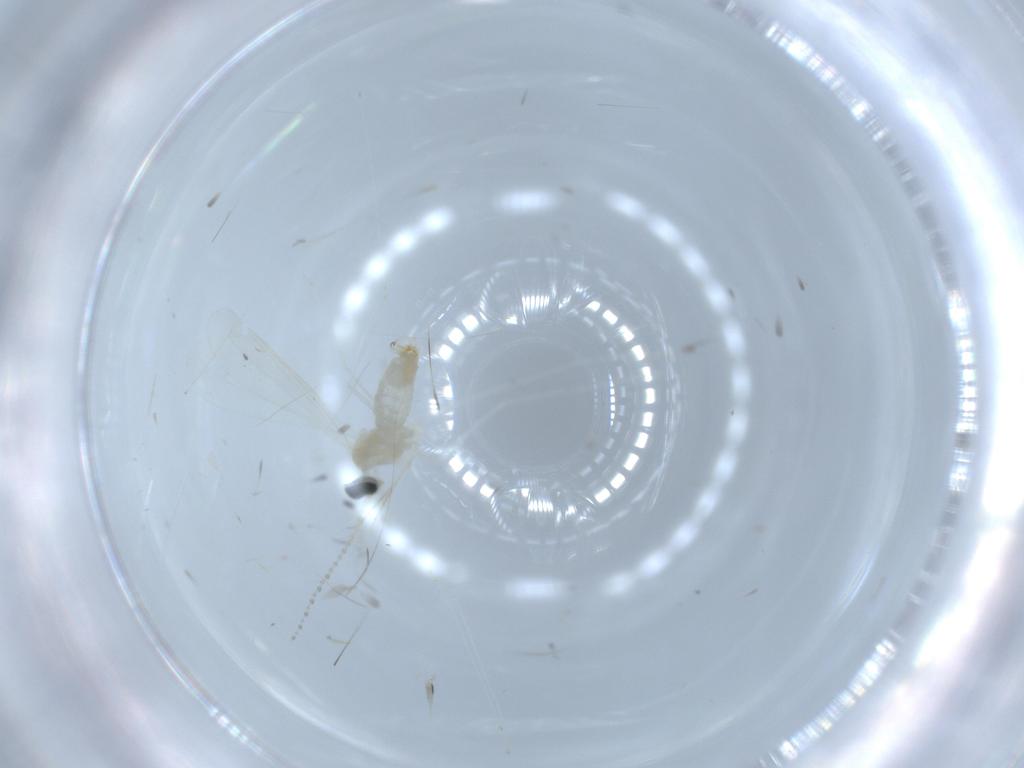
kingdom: Animalia
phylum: Arthropoda
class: Insecta
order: Diptera
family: Cecidomyiidae
